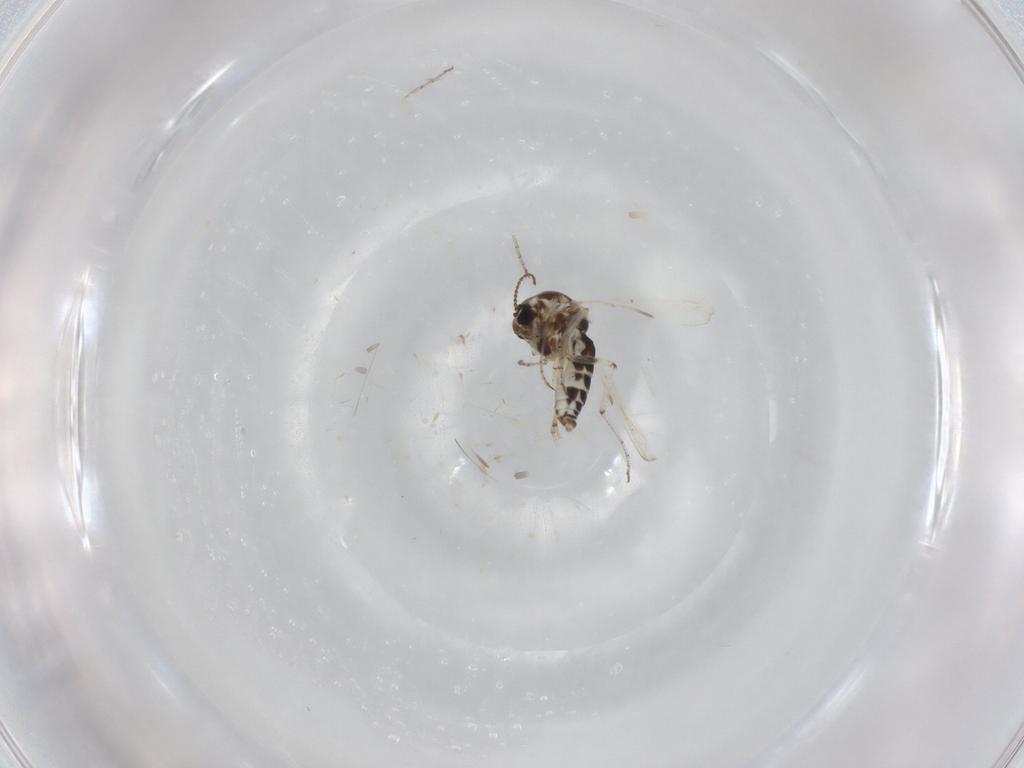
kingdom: Animalia
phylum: Arthropoda
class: Insecta
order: Diptera
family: Ceratopogonidae
